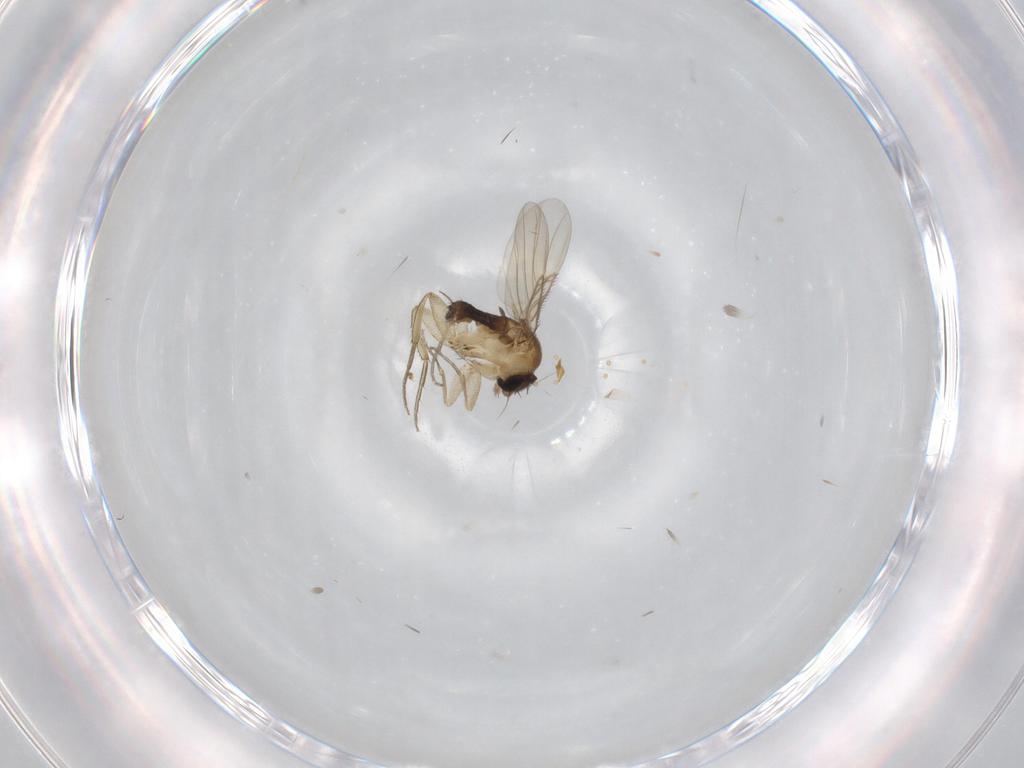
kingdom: Animalia
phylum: Arthropoda
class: Insecta
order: Diptera
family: Phoridae
